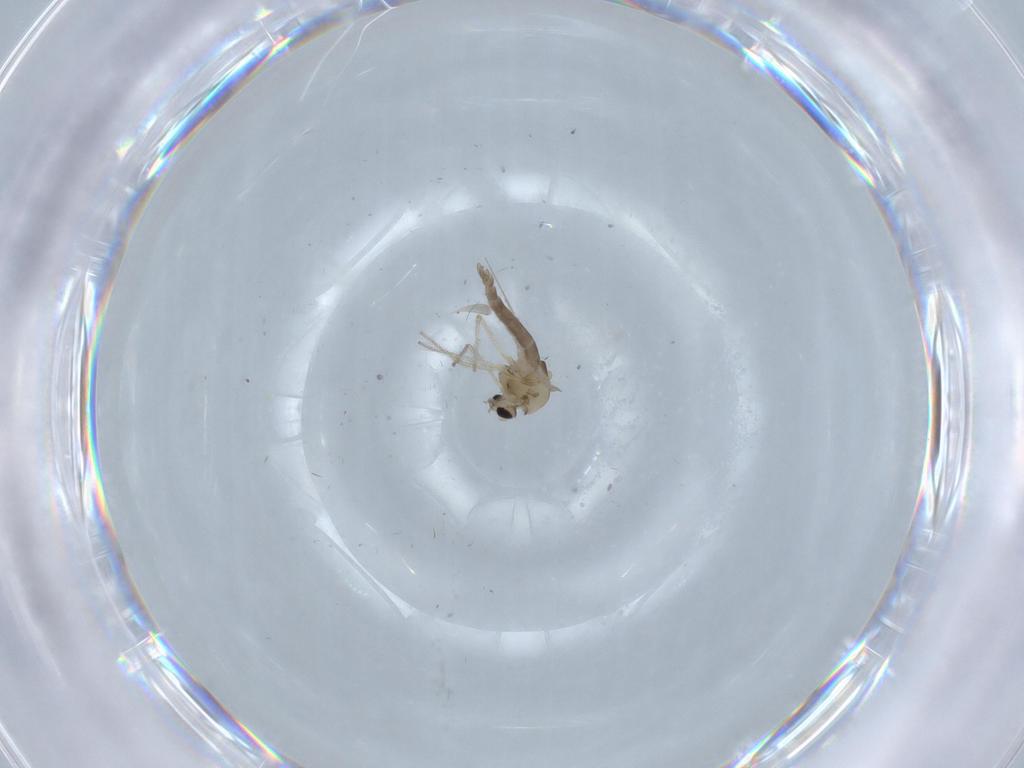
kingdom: Animalia
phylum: Arthropoda
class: Insecta
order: Diptera
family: Chironomidae
